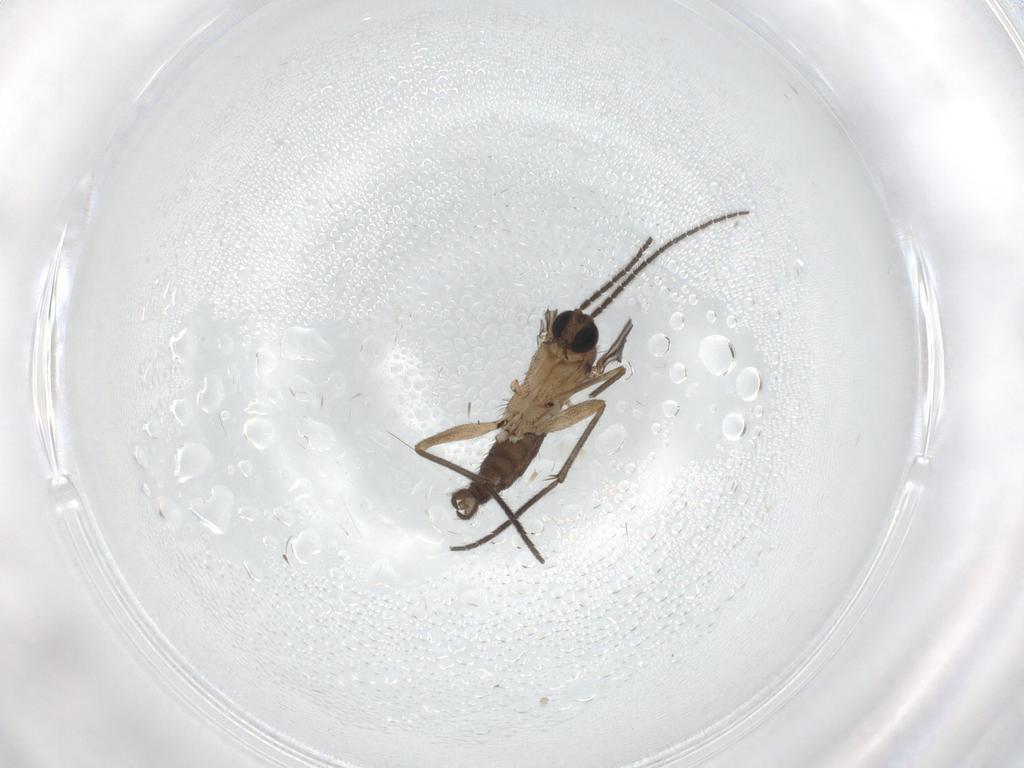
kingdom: Animalia
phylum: Arthropoda
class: Insecta
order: Diptera
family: Sciaridae
